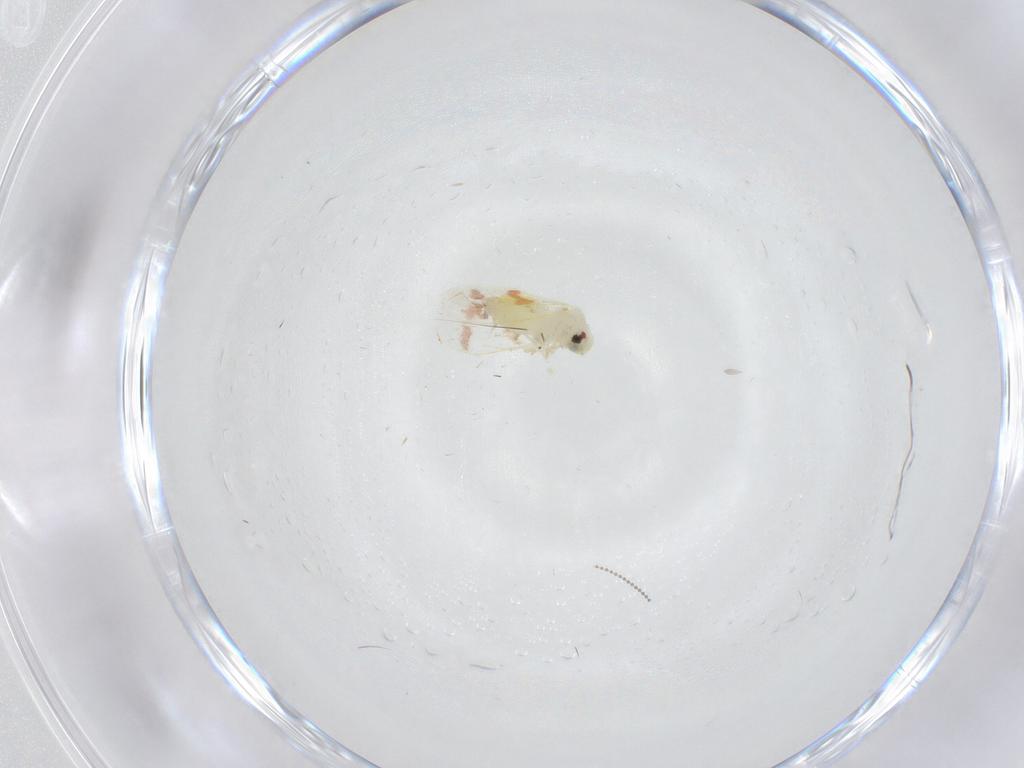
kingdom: Animalia
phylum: Arthropoda
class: Insecta
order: Hemiptera
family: Aleyrodidae
